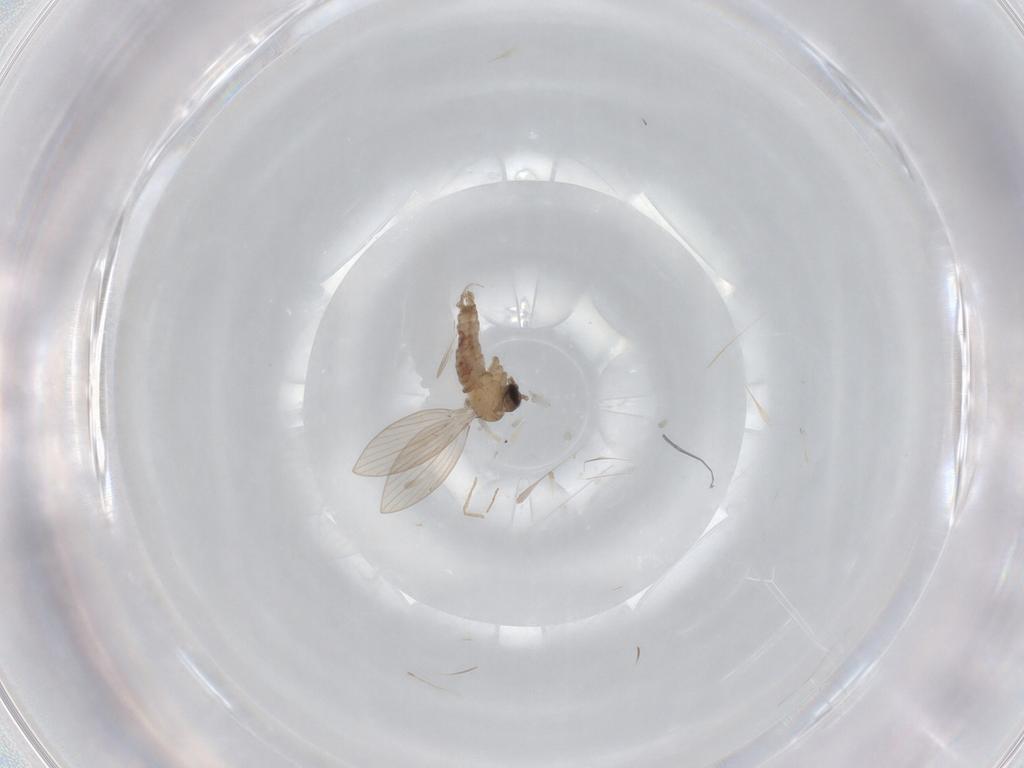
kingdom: Animalia
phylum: Arthropoda
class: Insecta
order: Diptera
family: Psychodidae
